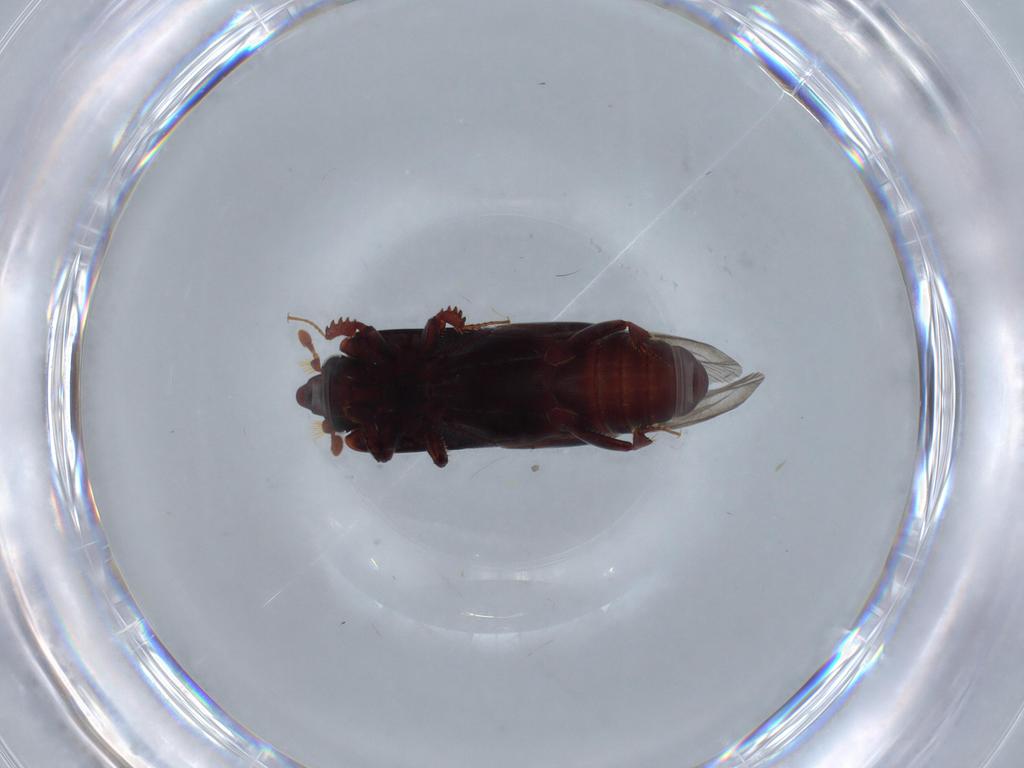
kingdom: Animalia
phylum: Arthropoda
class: Insecta
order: Coleoptera
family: Histeridae
